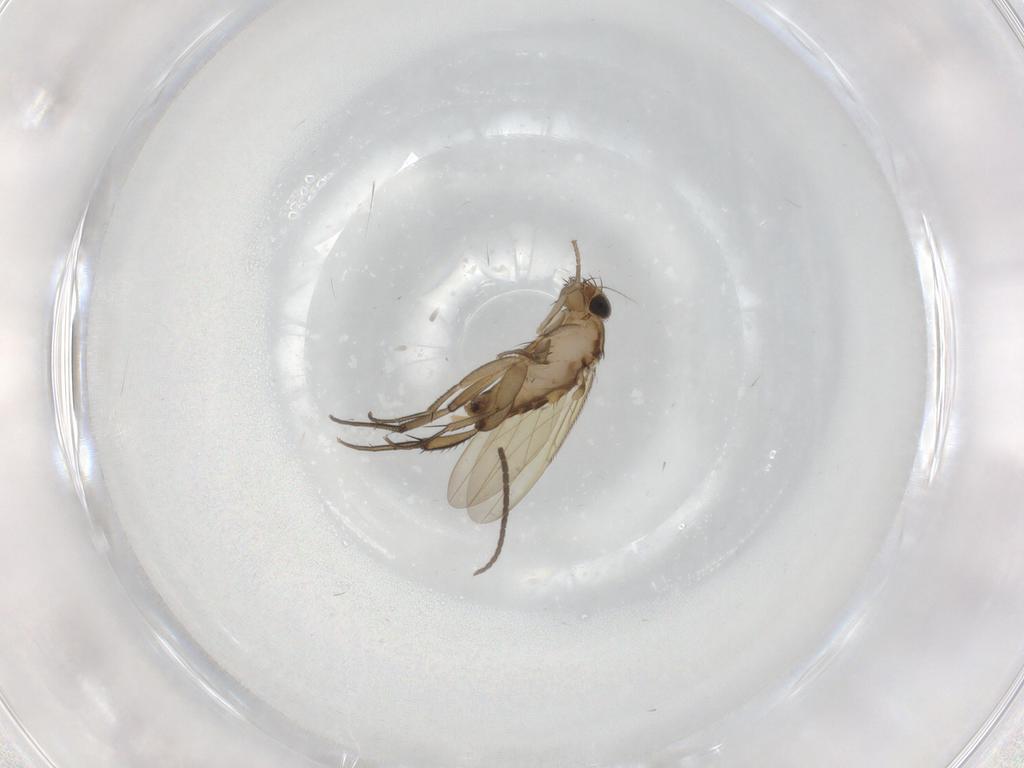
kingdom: Animalia
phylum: Arthropoda
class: Insecta
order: Diptera
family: Phoridae
